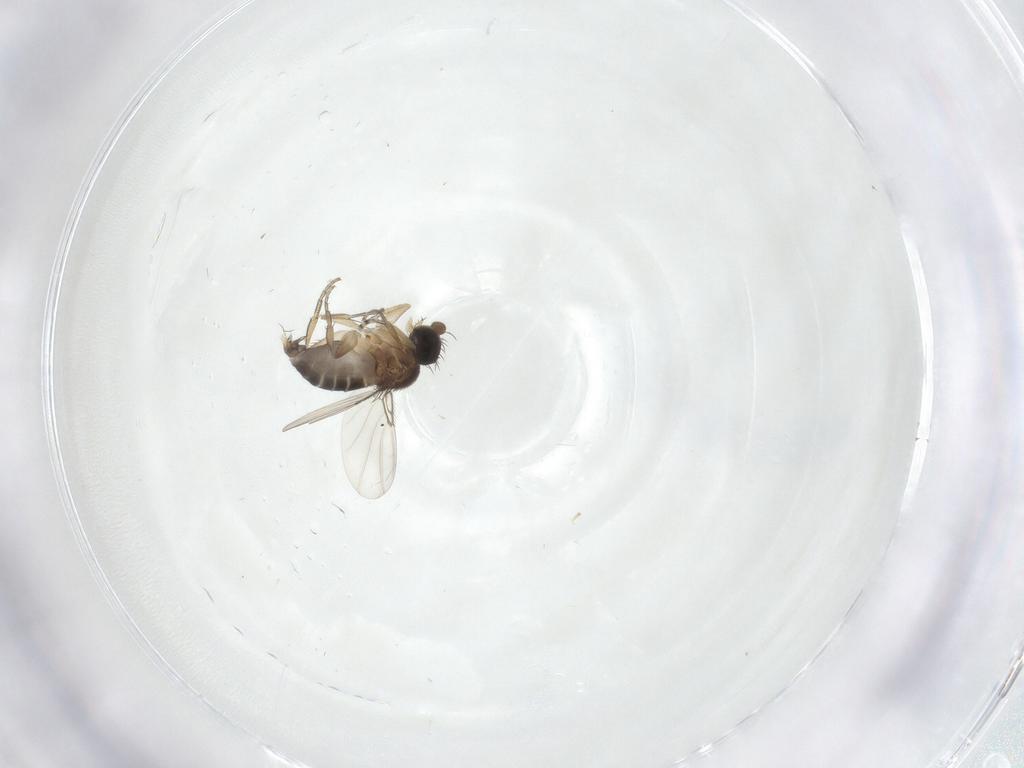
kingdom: Animalia
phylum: Arthropoda
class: Insecta
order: Diptera
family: Phoridae
